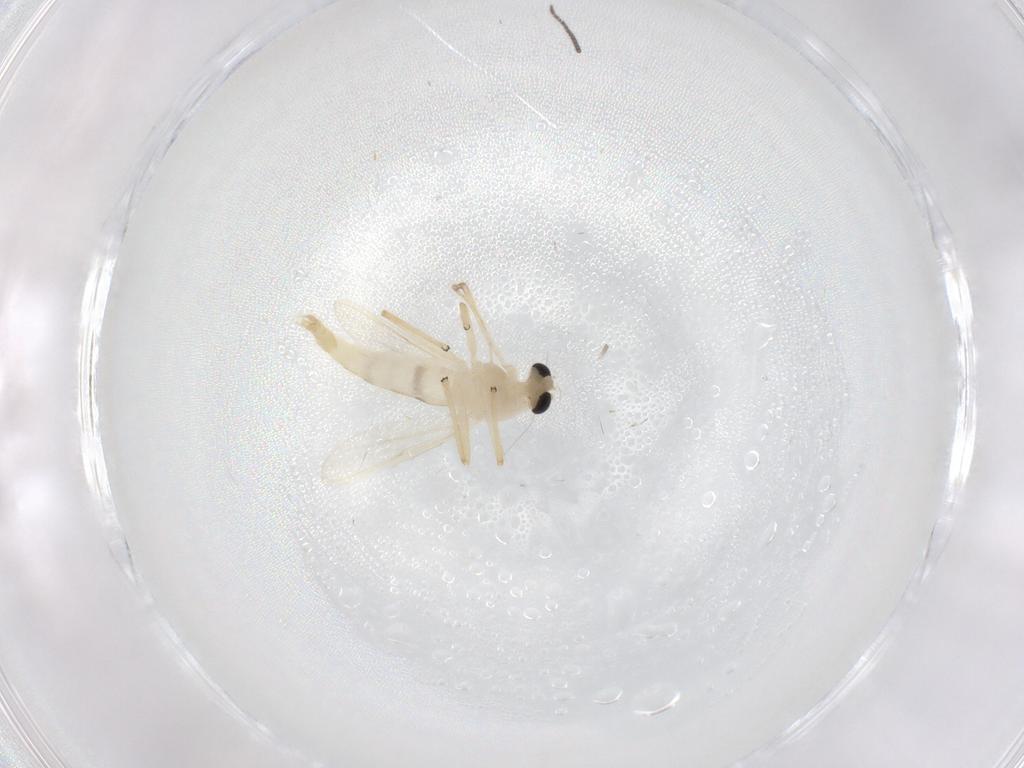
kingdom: Animalia
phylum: Arthropoda
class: Insecta
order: Diptera
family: Chironomidae
